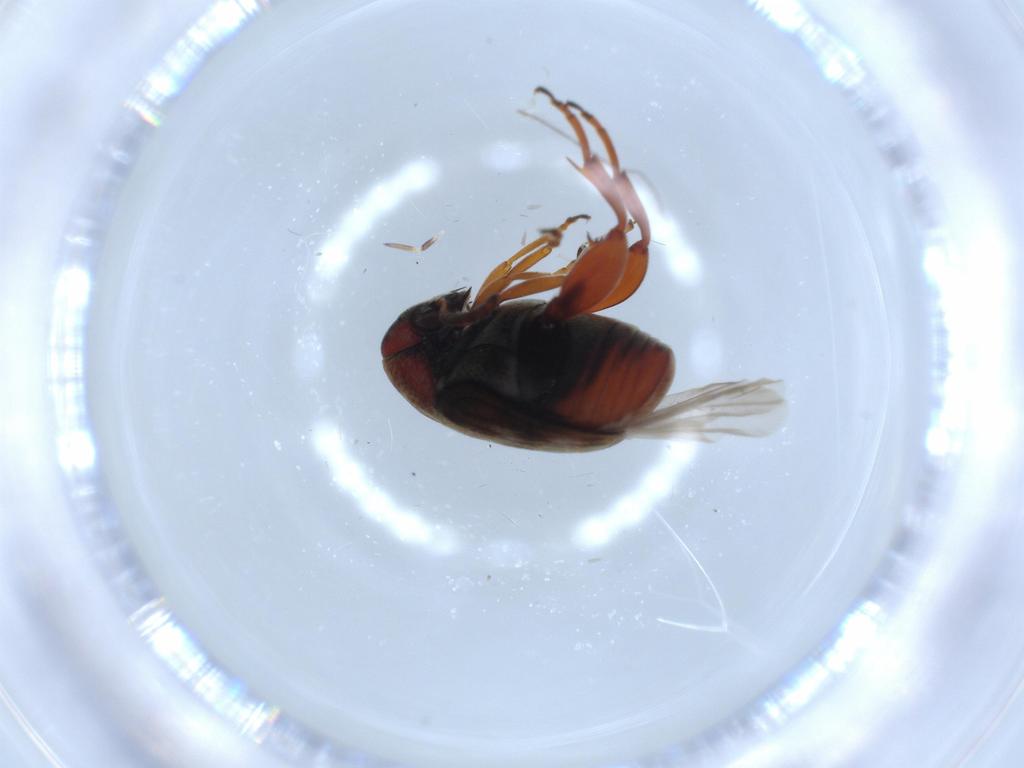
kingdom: Animalia
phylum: Arthropoda
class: Insecta
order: Coleoptera
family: Chrysomelidae
